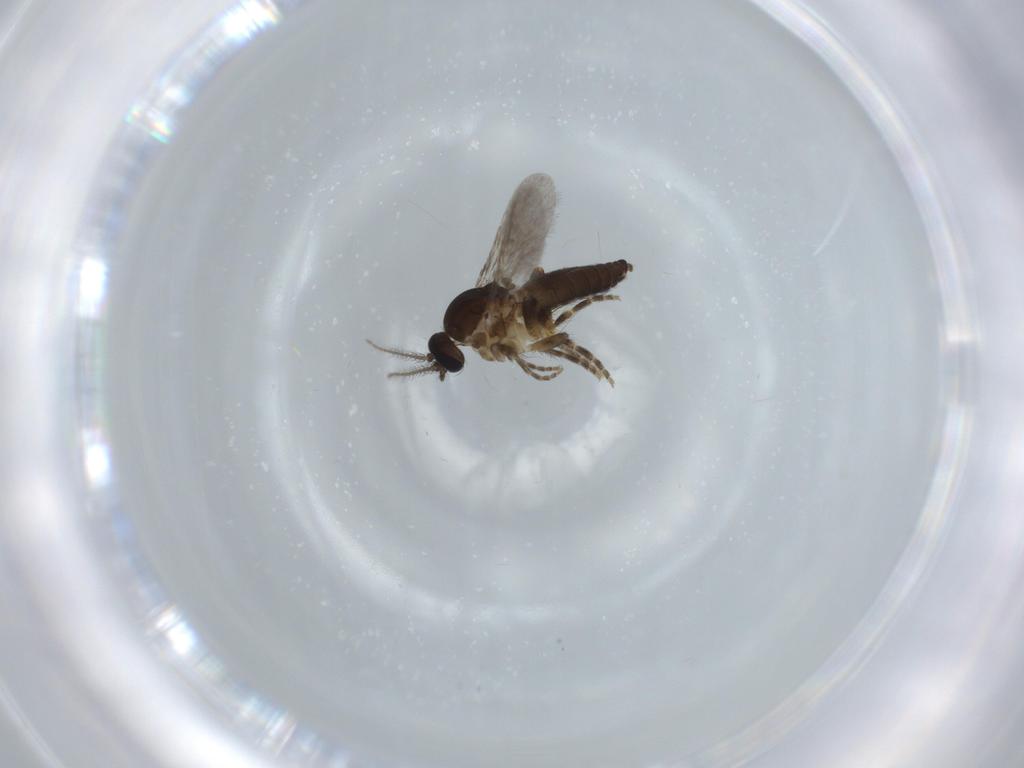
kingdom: Animalia
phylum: Arthropoda
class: Insecta
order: Diptera
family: Ceratopogonidae
